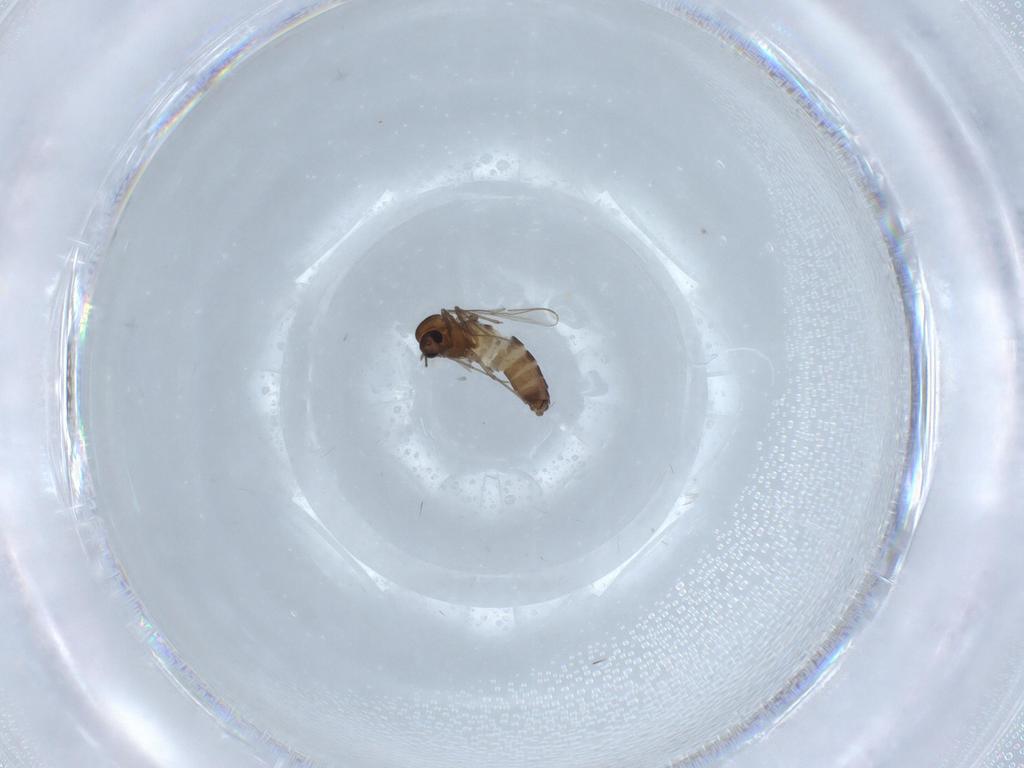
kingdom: Animalia
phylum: Arthropoda
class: Insecta
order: Diptera
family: Chironomidae
